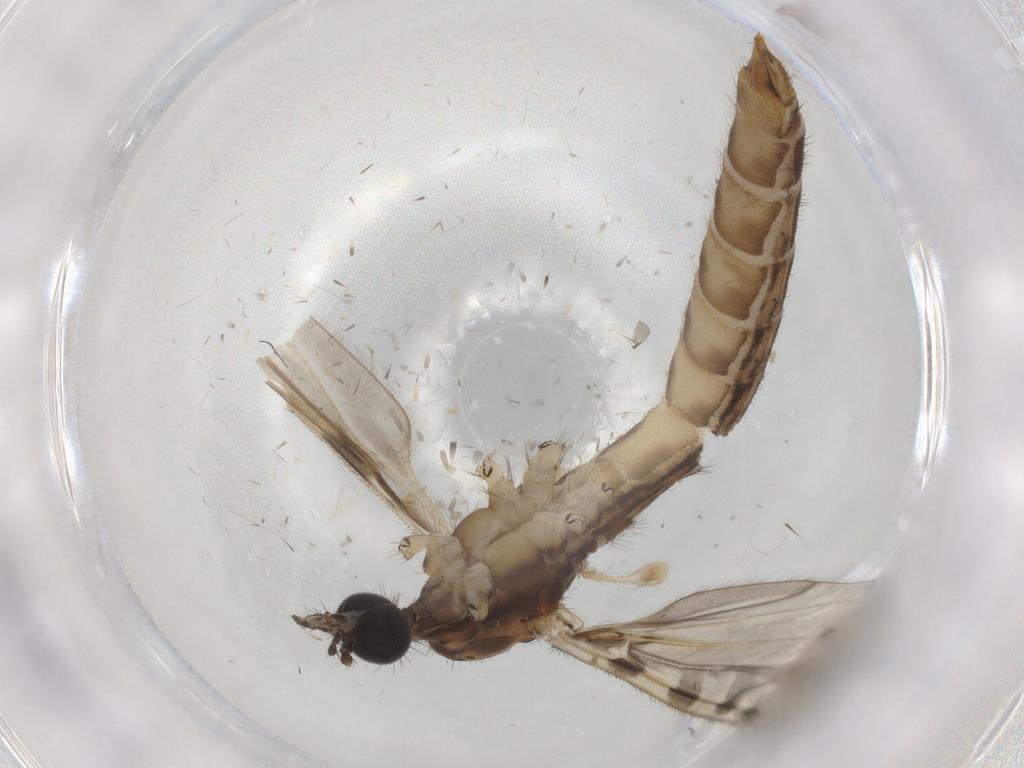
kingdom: Animalia
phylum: Arthropoda
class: Insecta
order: Diptera
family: Limoniidae
